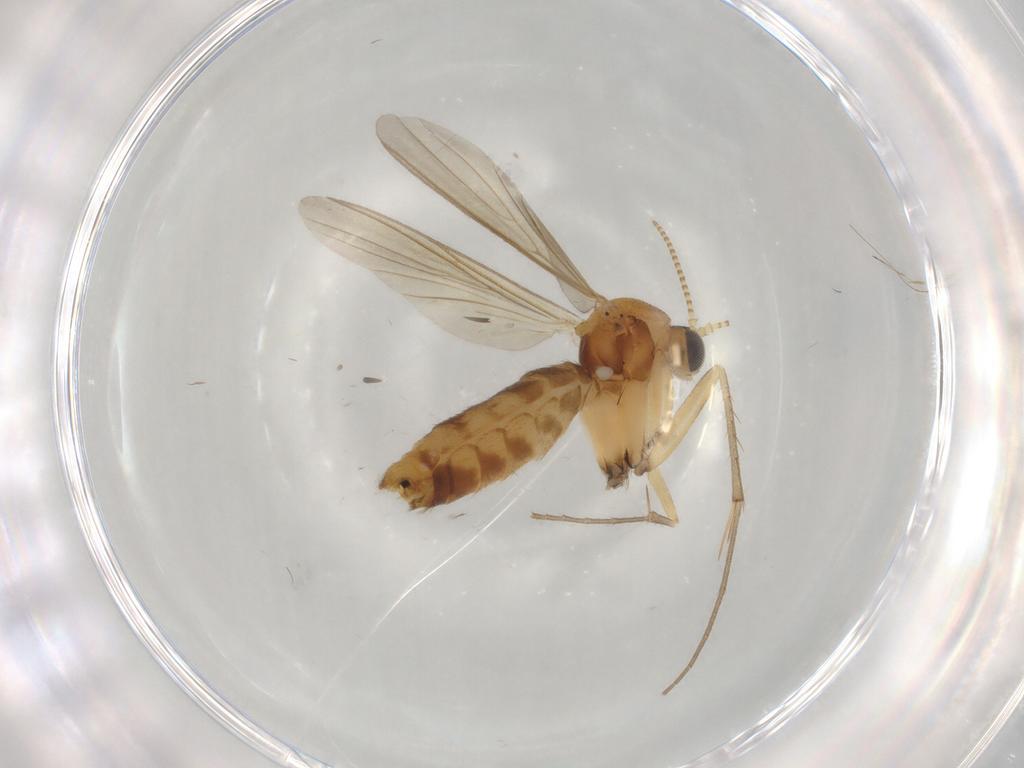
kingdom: Animalia
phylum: Arthropoda
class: Insecta
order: Diptera
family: Mycetophilidae
